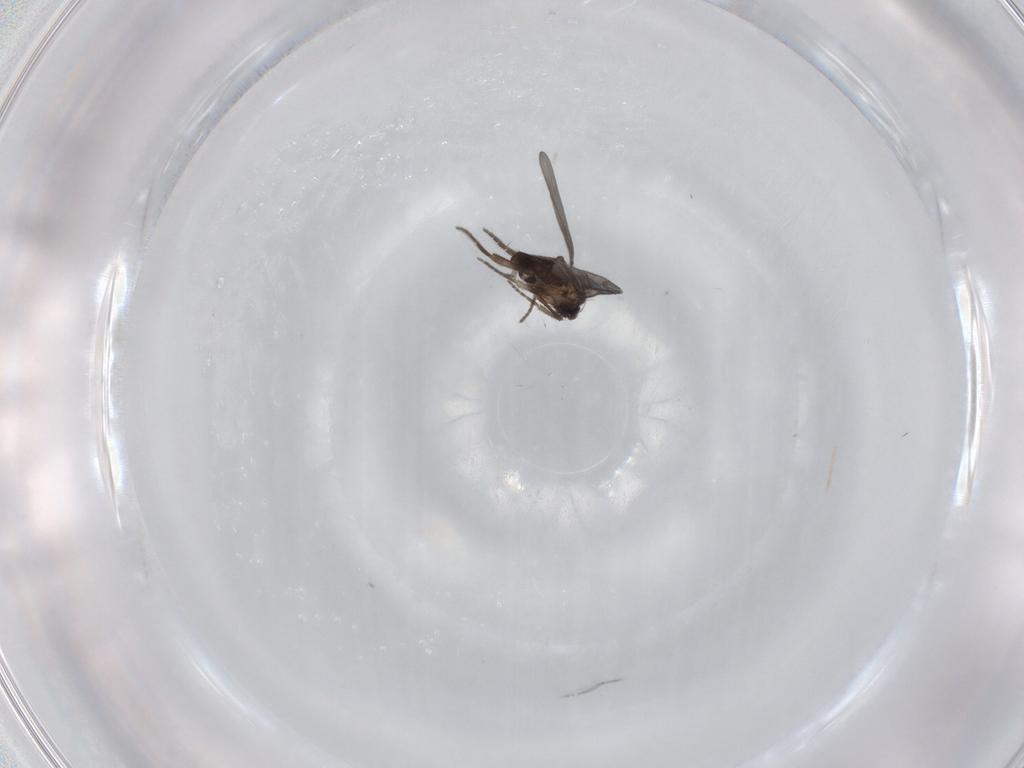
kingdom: Animalia
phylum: Arthropoda
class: Insecta
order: Diptera
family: Phoridae
